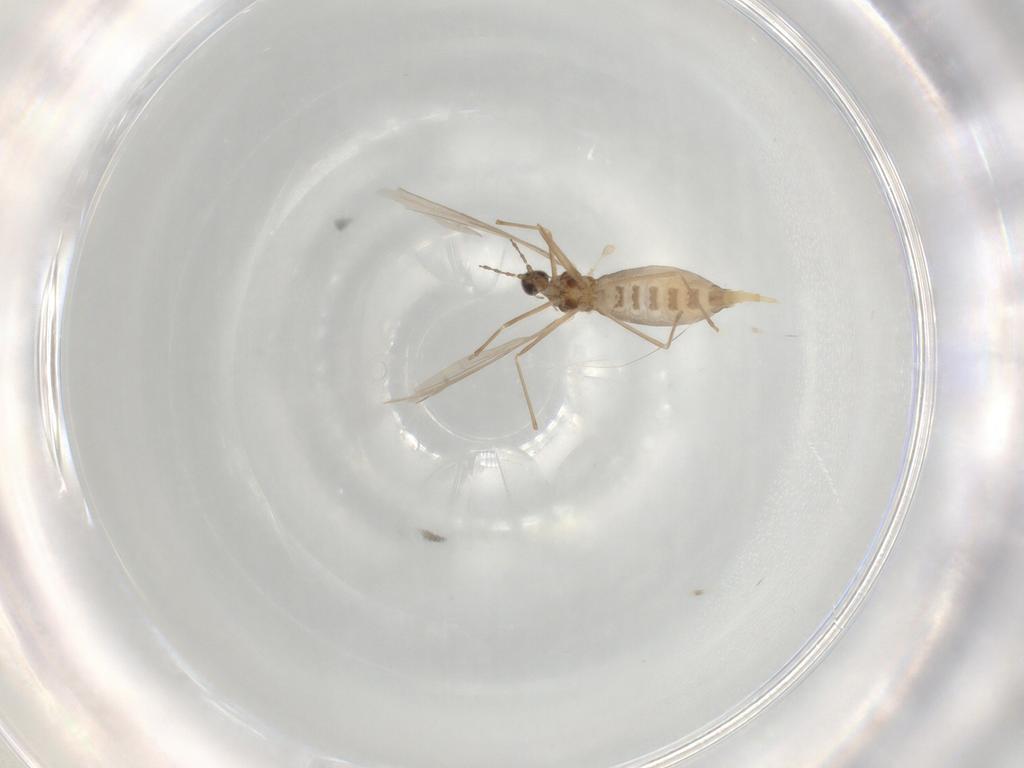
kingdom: Animalia
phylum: Arthropoda
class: Insecta
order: Diptera
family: Cecidomyiidae
